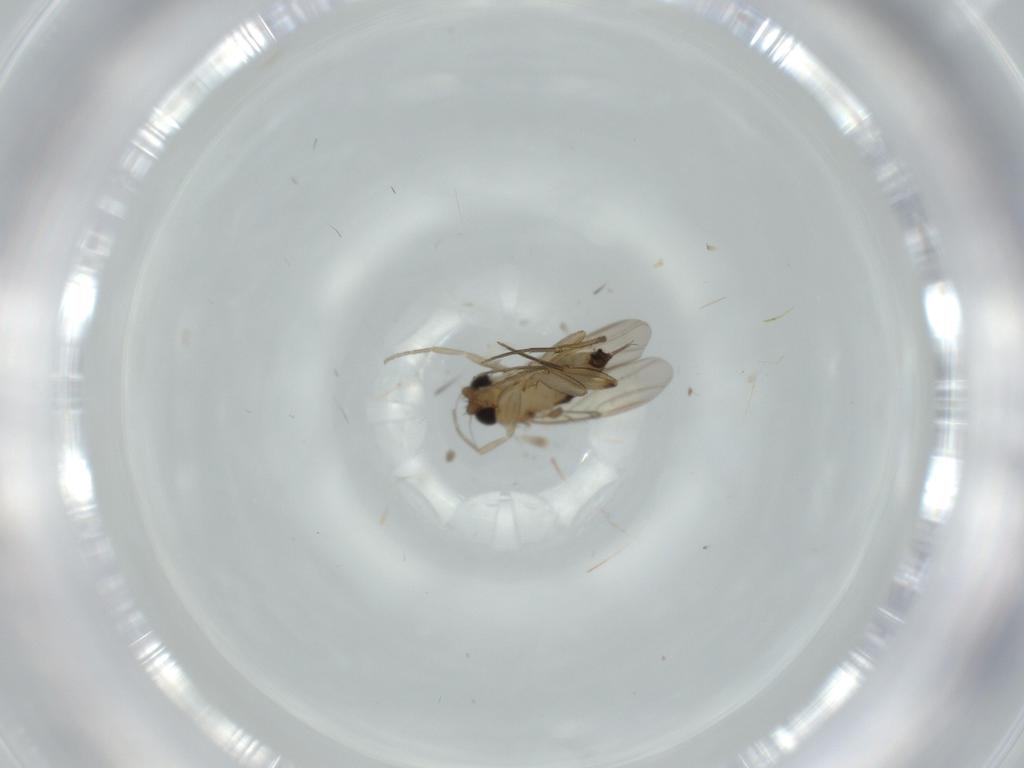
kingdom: Animalia
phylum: Arthropoda
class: Insecta
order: Diptera
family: Phoridae
